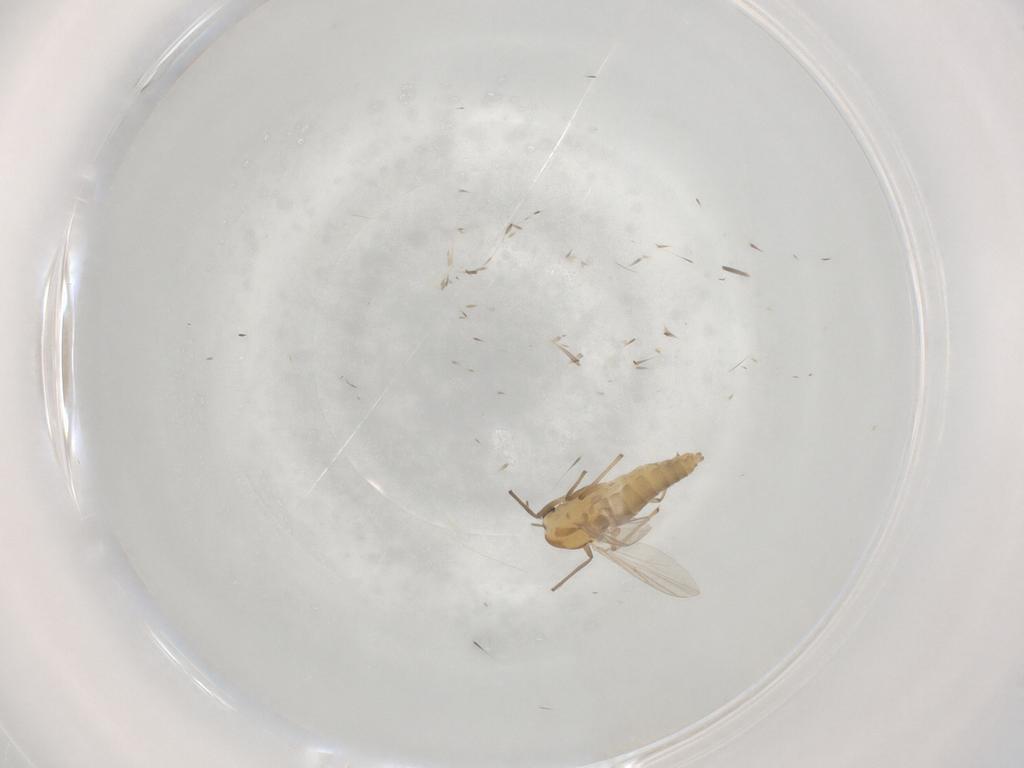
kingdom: Animalia
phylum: Arthropoda
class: Insecta
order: Diptera
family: Chironomidae
